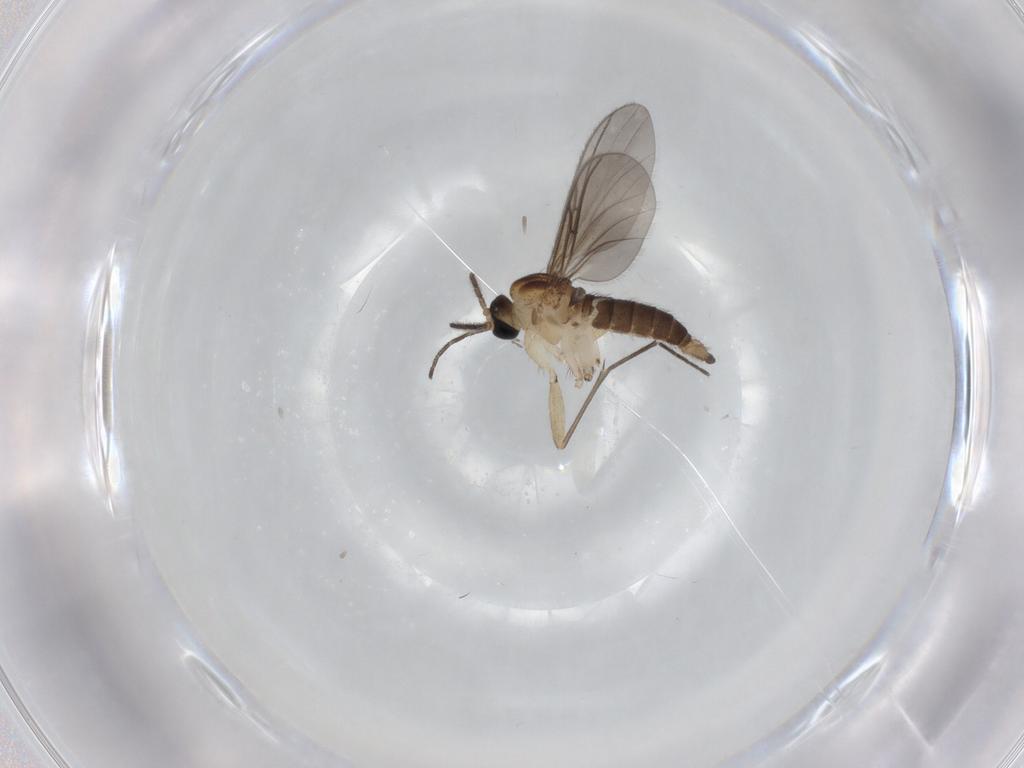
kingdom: Animalia
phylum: Arthropoda
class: Insecta
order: Diptera
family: Sciaridae
